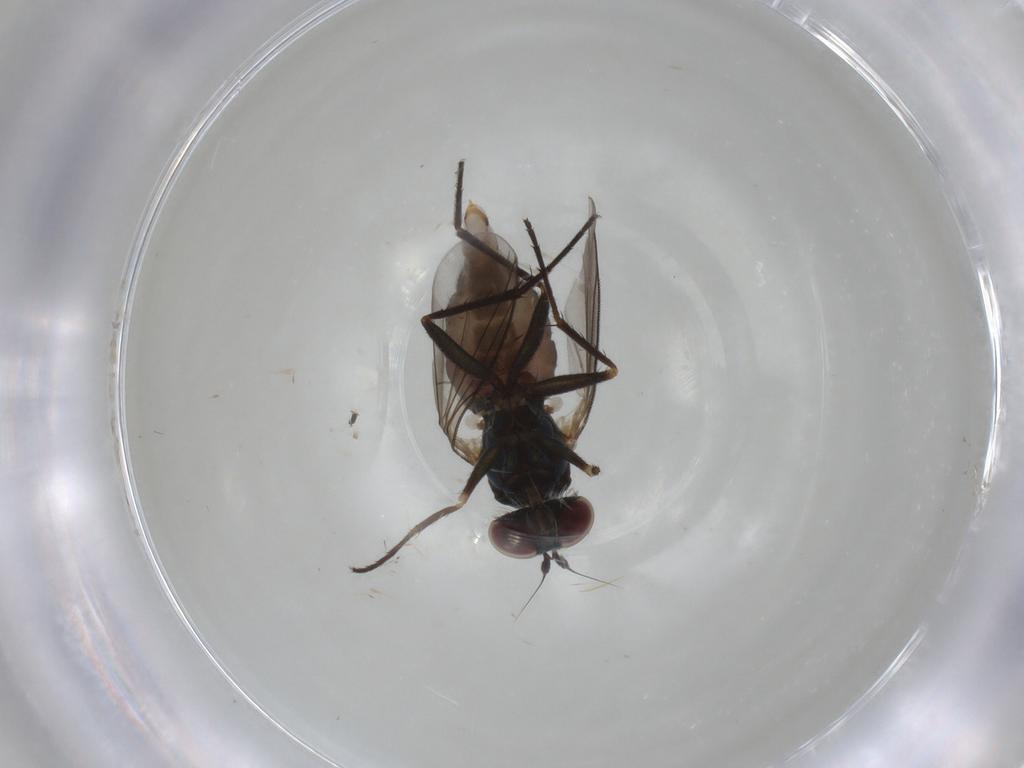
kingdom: Animalia
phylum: Arthropoda
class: Insecta
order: Diptera
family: Dolichopodidae
